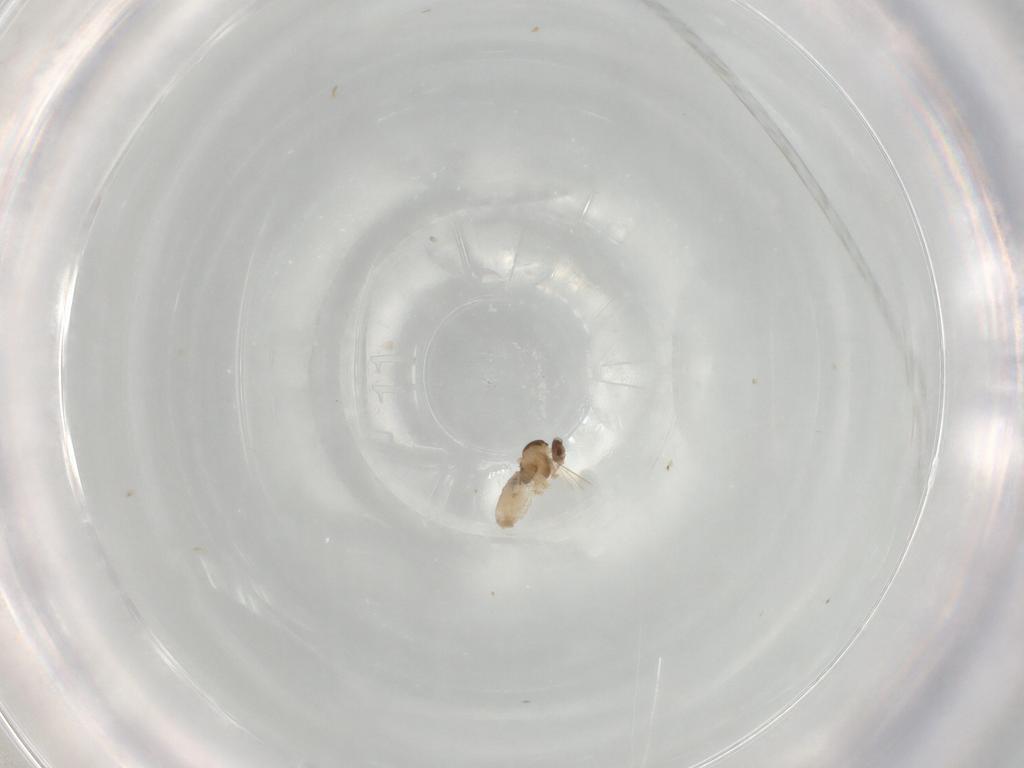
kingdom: Animalia
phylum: Arthropoda
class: Insecta
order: Diptera
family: Cecidomyiidae
